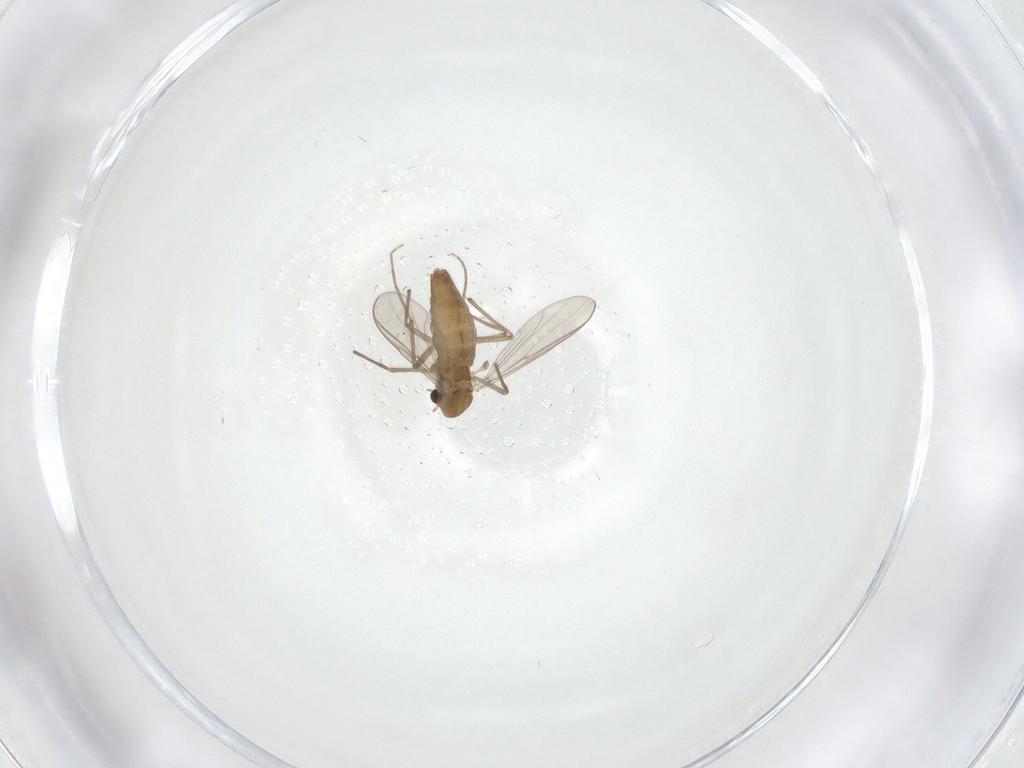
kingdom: Animalia
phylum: Arthropoda
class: Insecta
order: Diptera
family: Chironomidae
